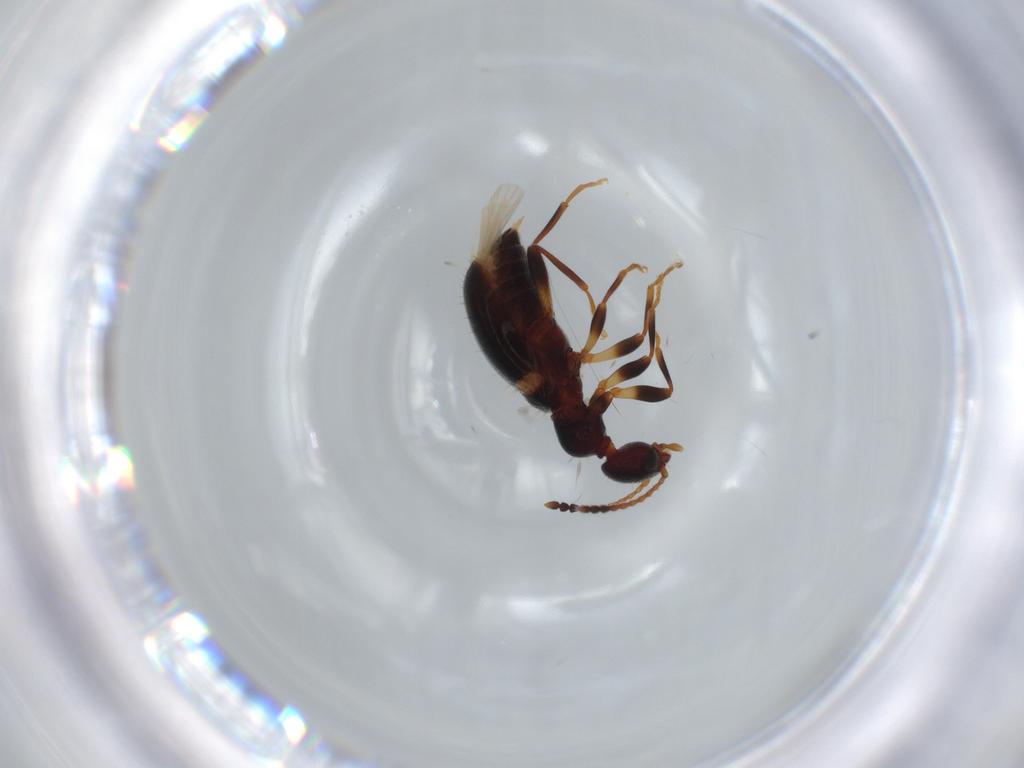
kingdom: Animalia
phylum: Arthropoda
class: Insecta
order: Coleoptera
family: Anthicidae
